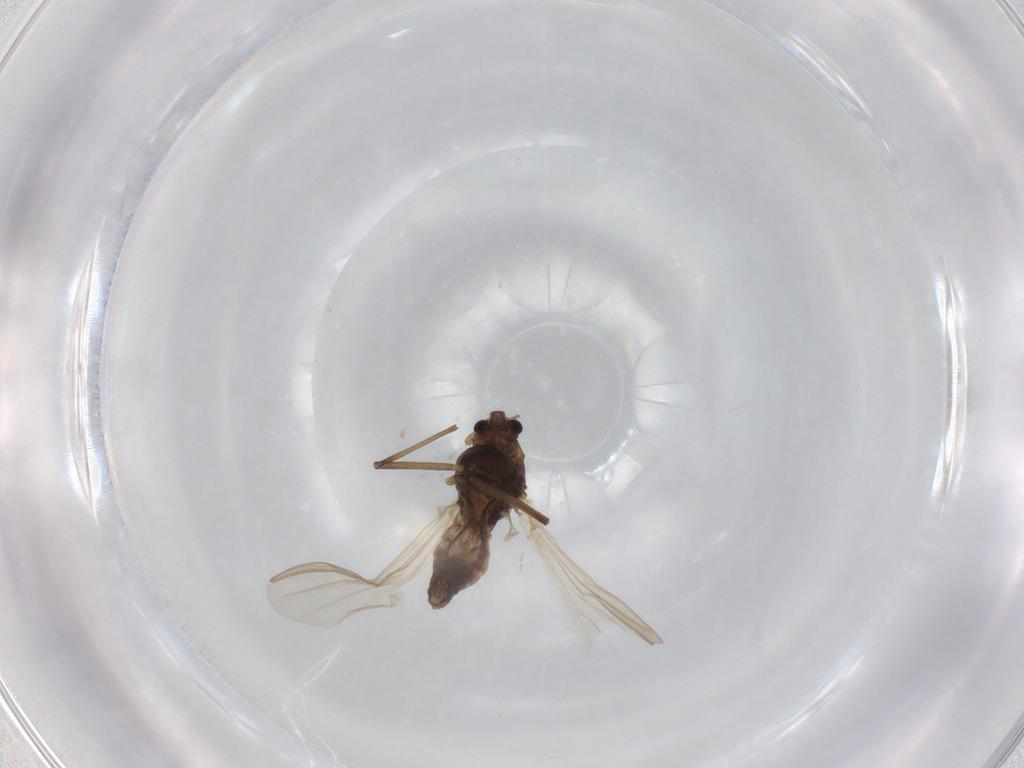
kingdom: Animalia
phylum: Arthropoda
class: Insecta
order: Diptera
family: Chironomidae
